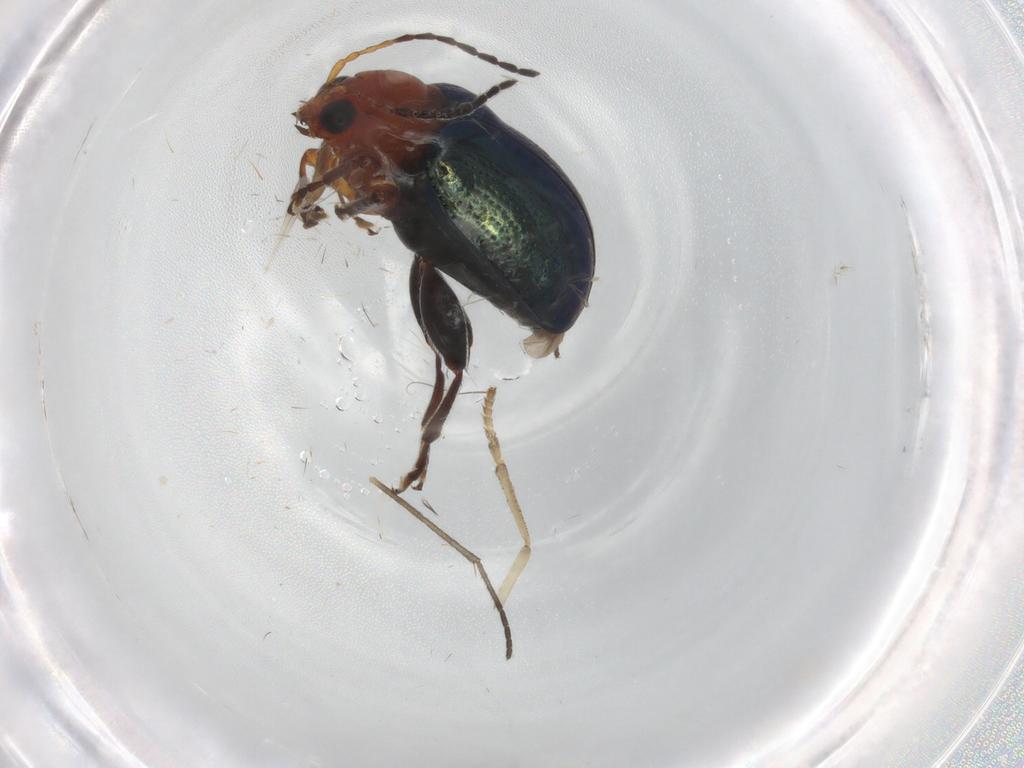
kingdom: Animalia
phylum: Arthropoda
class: Insecta
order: Coleoptera
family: Chrysomelidae
